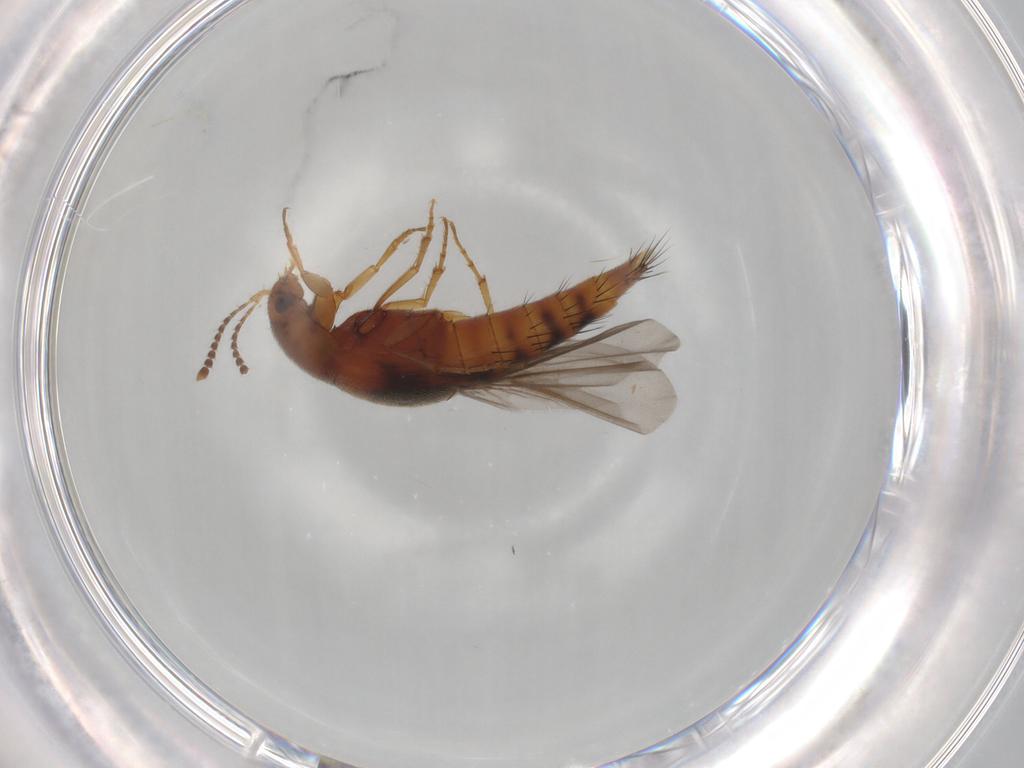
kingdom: Animalia
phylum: Arthropoda
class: Insecta
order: Coleoptera
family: Staphylinidae
